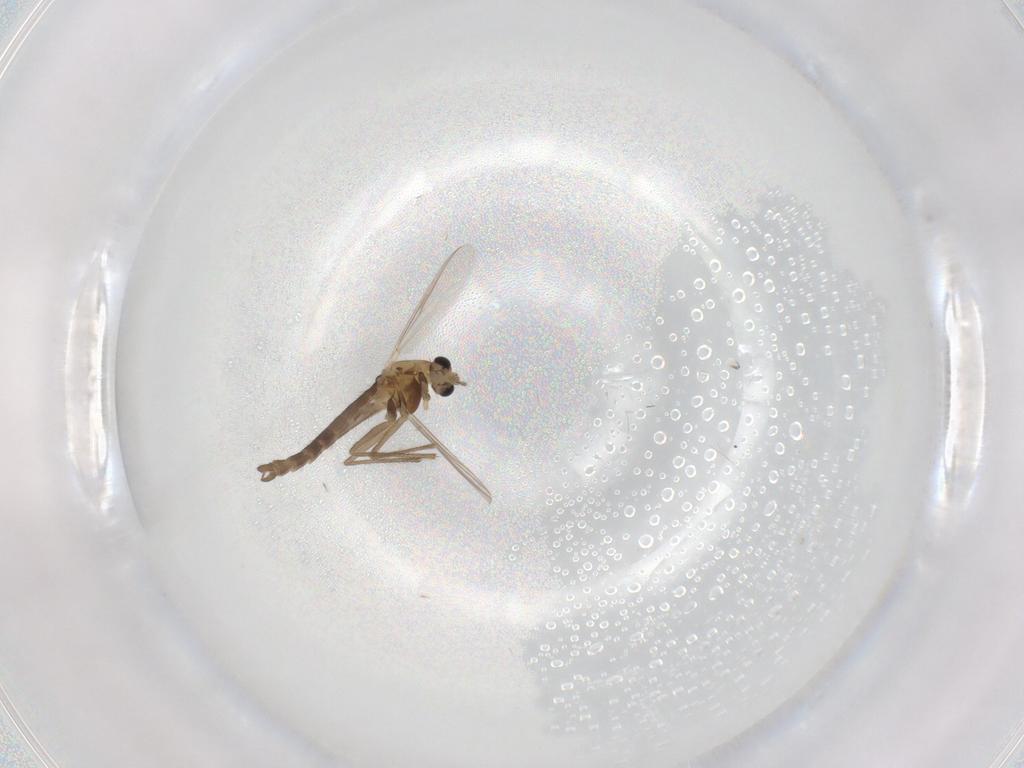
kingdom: Animalia
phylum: Arthropoda
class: Insecta
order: Diptera
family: Chironomidae
